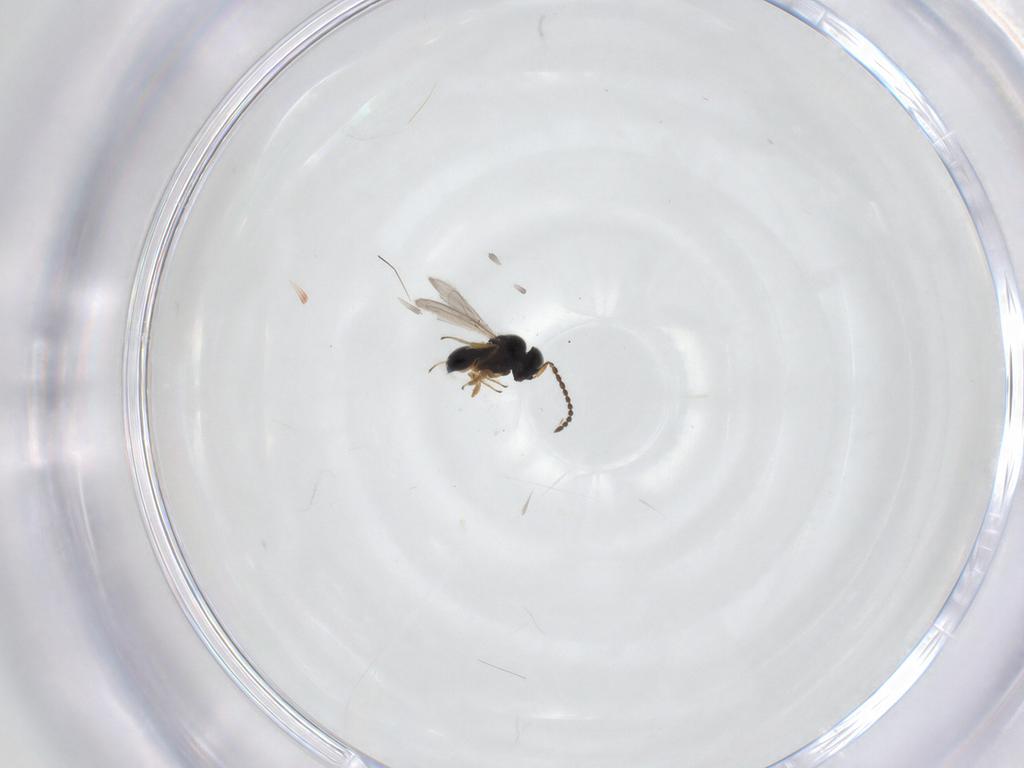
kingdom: Animalia
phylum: Arthropoda
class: Insecta
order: Hymenoptera
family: Scelionidae
